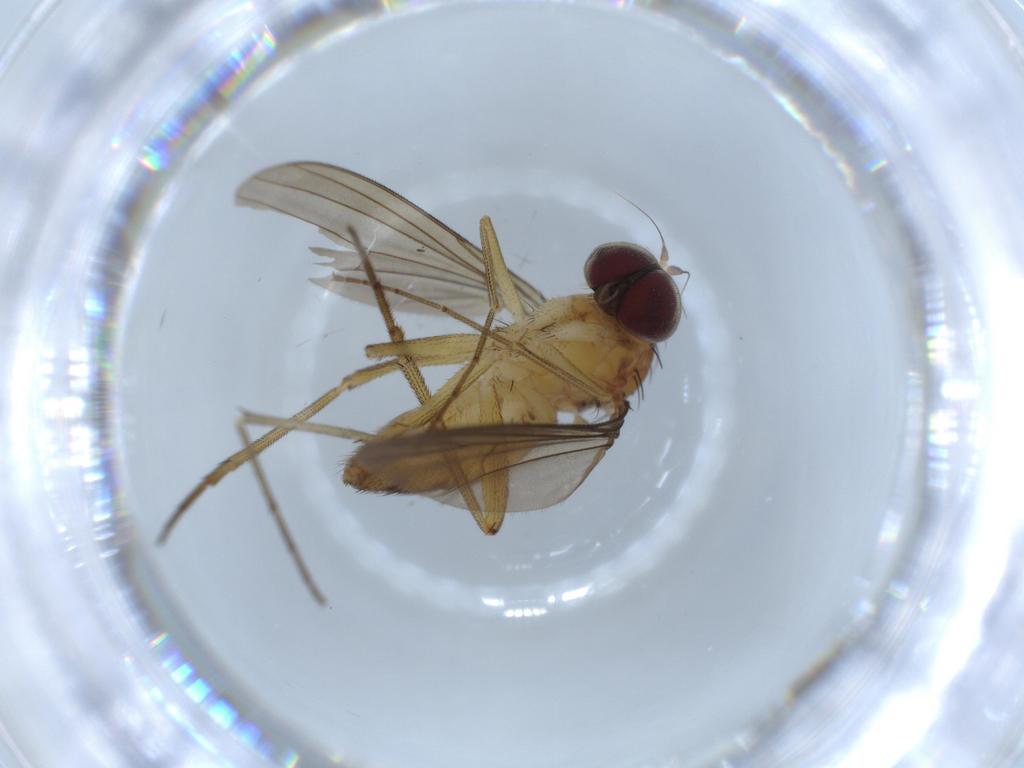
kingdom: Animalia
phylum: Arthropoda
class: Insecta
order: Diptera
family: Dolichopodidae
